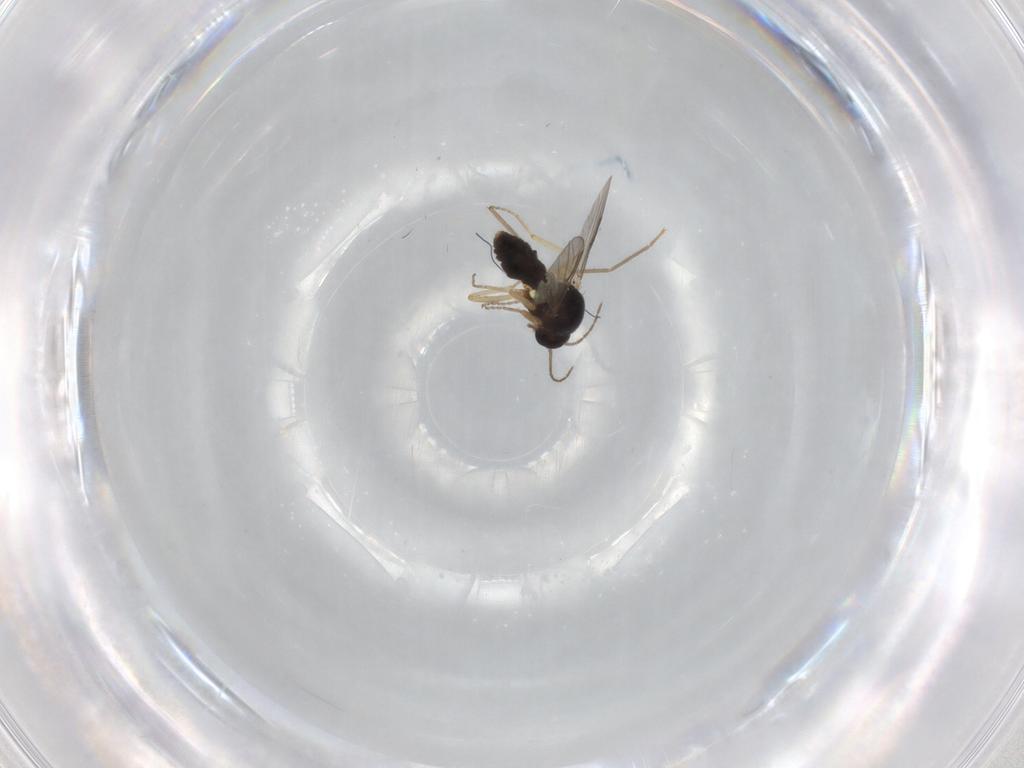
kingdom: Animalia
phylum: Arthropoda
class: Insecta
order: Diptera
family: Ceratopogonidae
